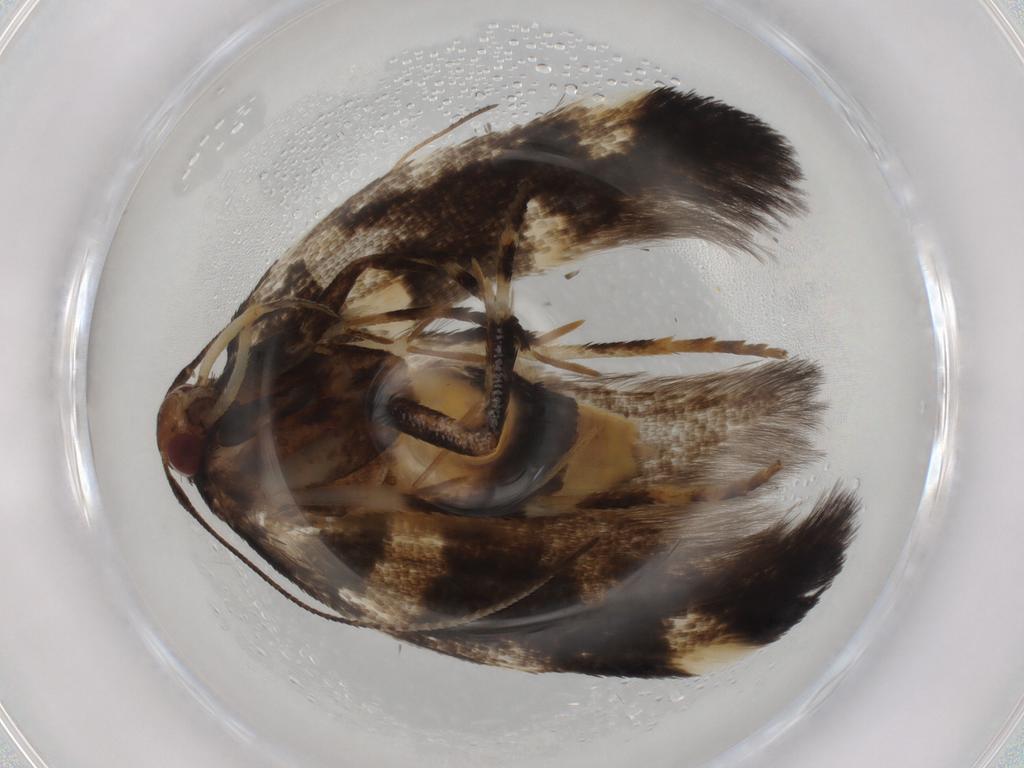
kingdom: Animalia
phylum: Arthropoda
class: Insecta
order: Lepidoptera
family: Cosmopterigidae
